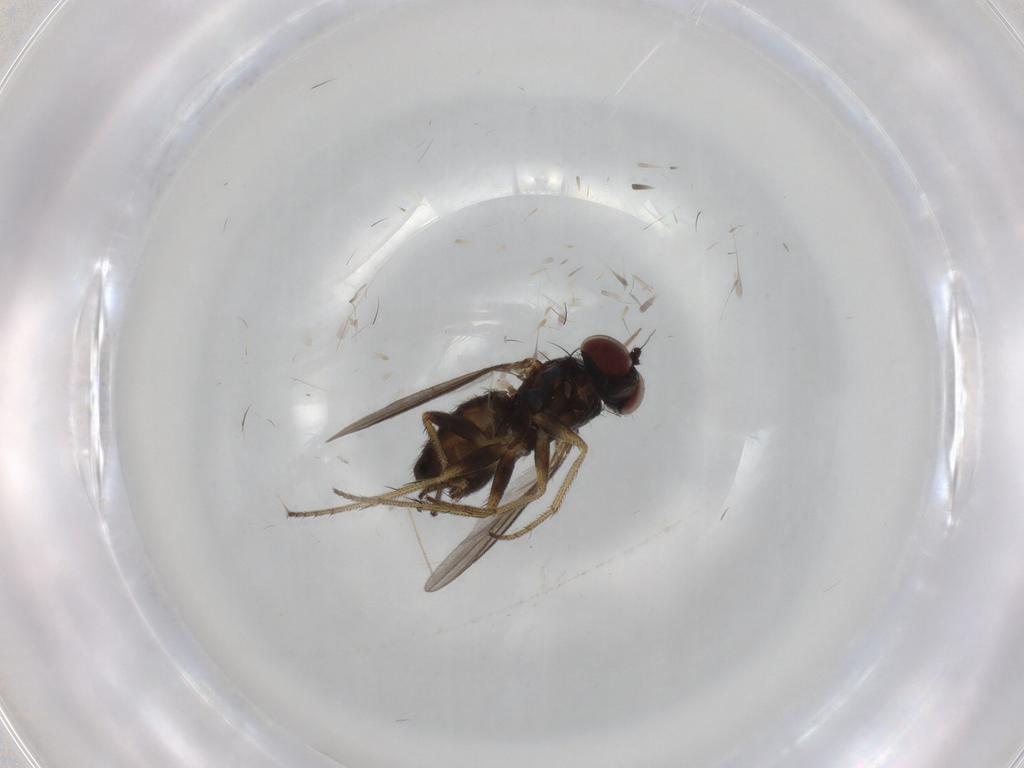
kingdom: Animalia
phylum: Arthropoda
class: Insecta
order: Diptera
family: Chironomidae
